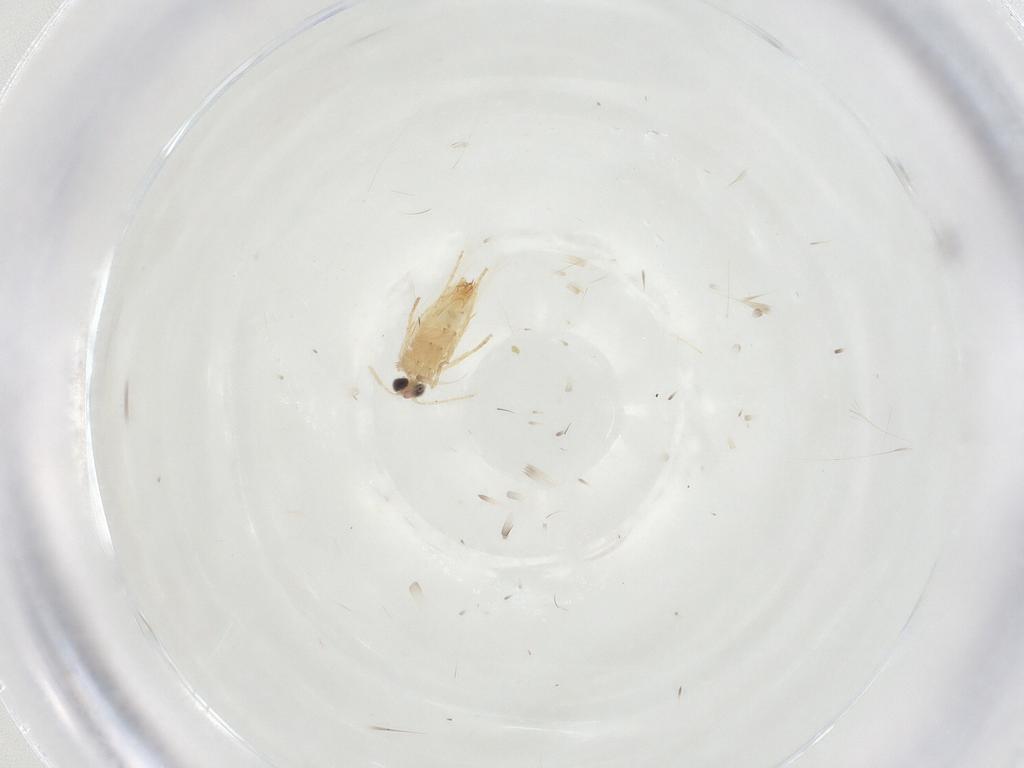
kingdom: Animalia
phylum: Arthropoda
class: Insecta
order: Lepidoptera
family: Crambidae
